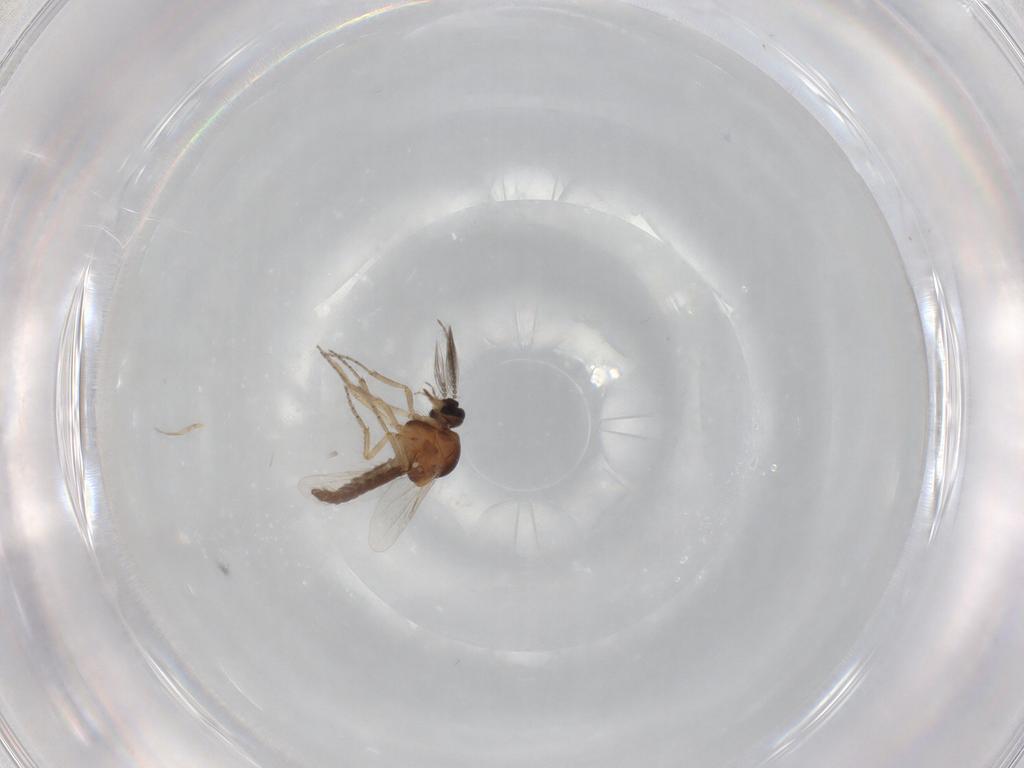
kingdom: Animalia
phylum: Arthropoda
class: Insecta
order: Diptera
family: Ceratopogonidae
